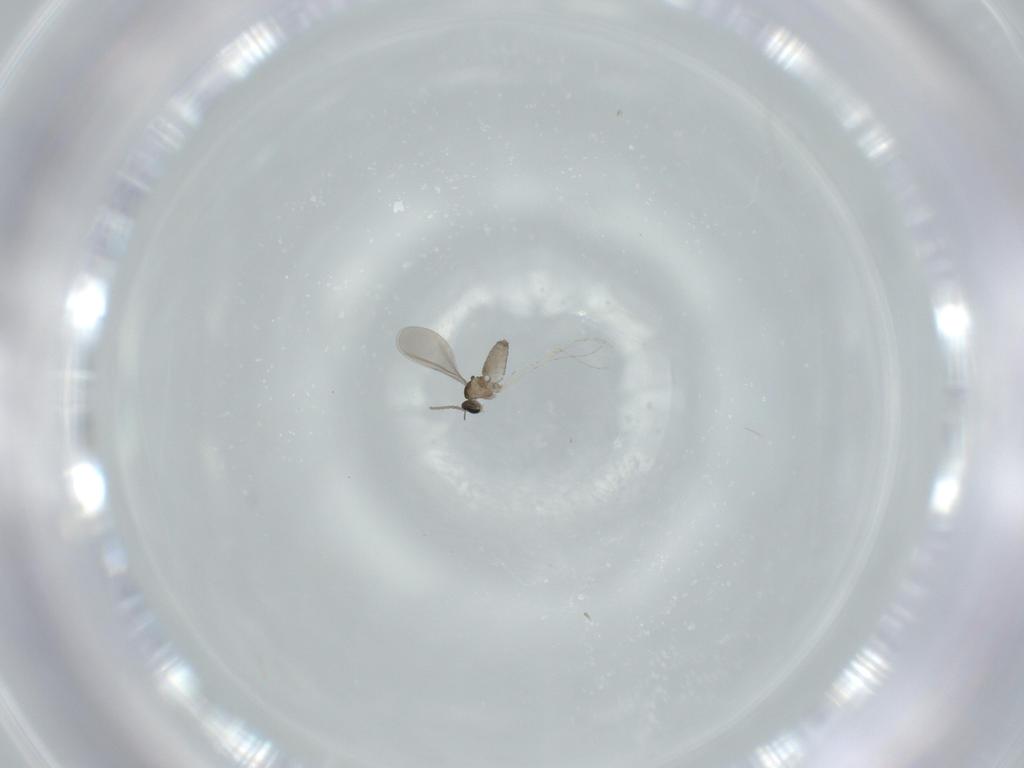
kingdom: Animalia
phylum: Arthropoda
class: Insecta
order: Diptera
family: Cecidomyiidae
